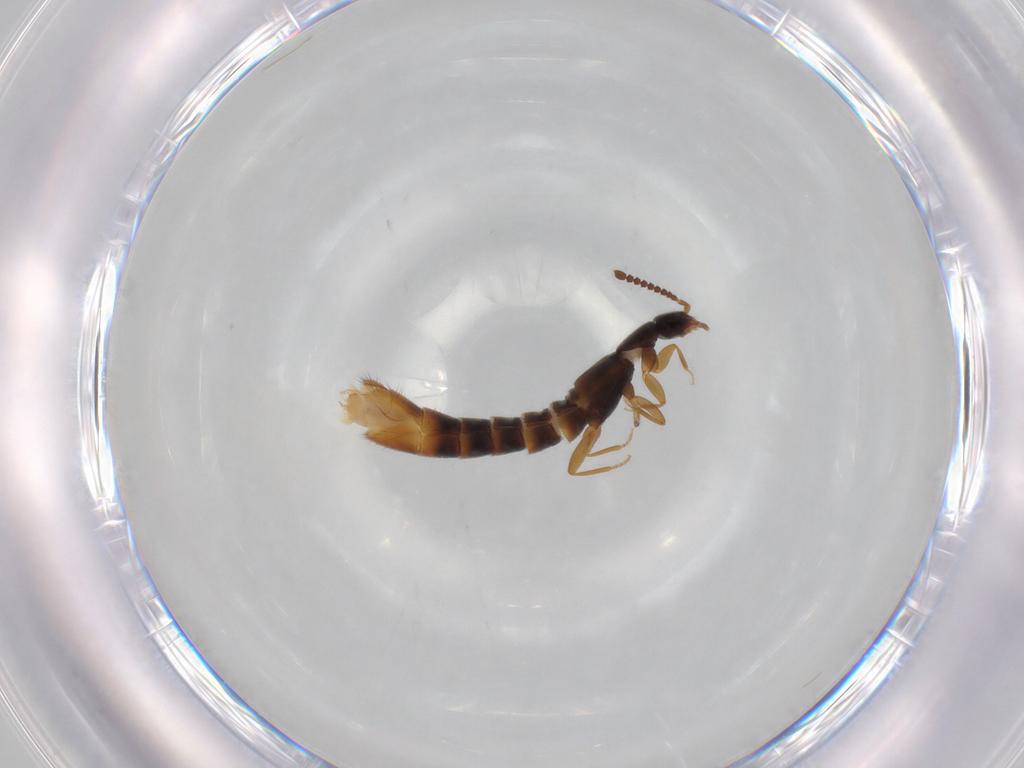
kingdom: Animalia
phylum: Arthropoda
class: Insecta
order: Coleoptera
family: Staphylinidae
